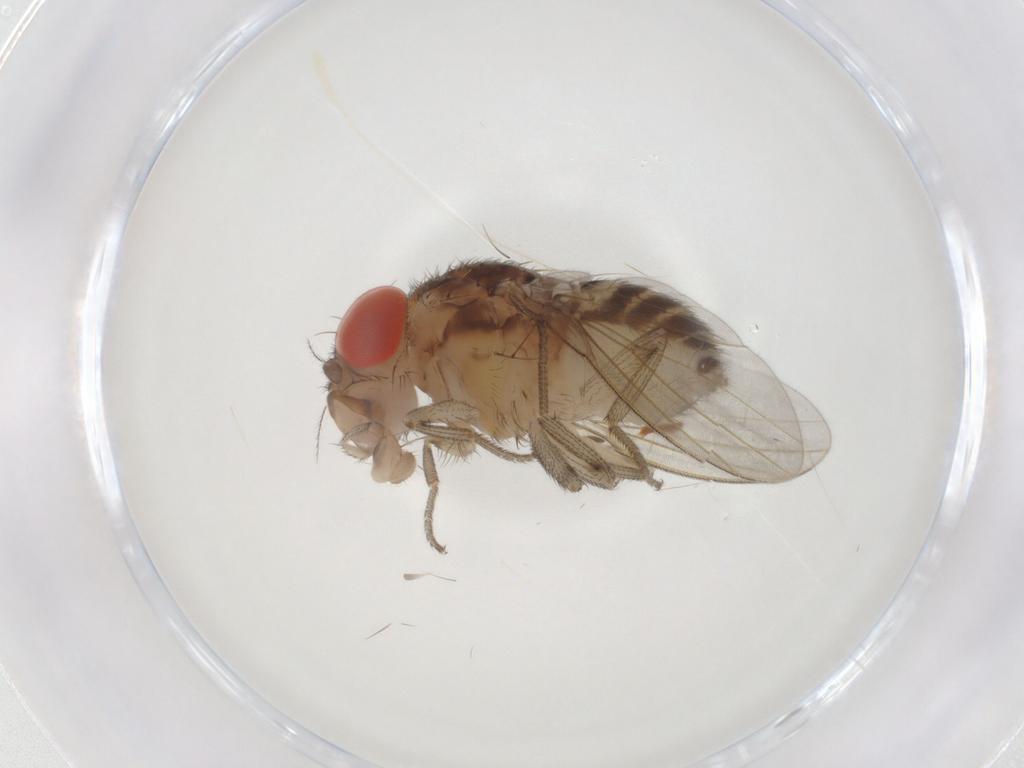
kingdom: Animalia
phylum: Arthropoda
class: Insecta
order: Diptera
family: Drosophilidae
